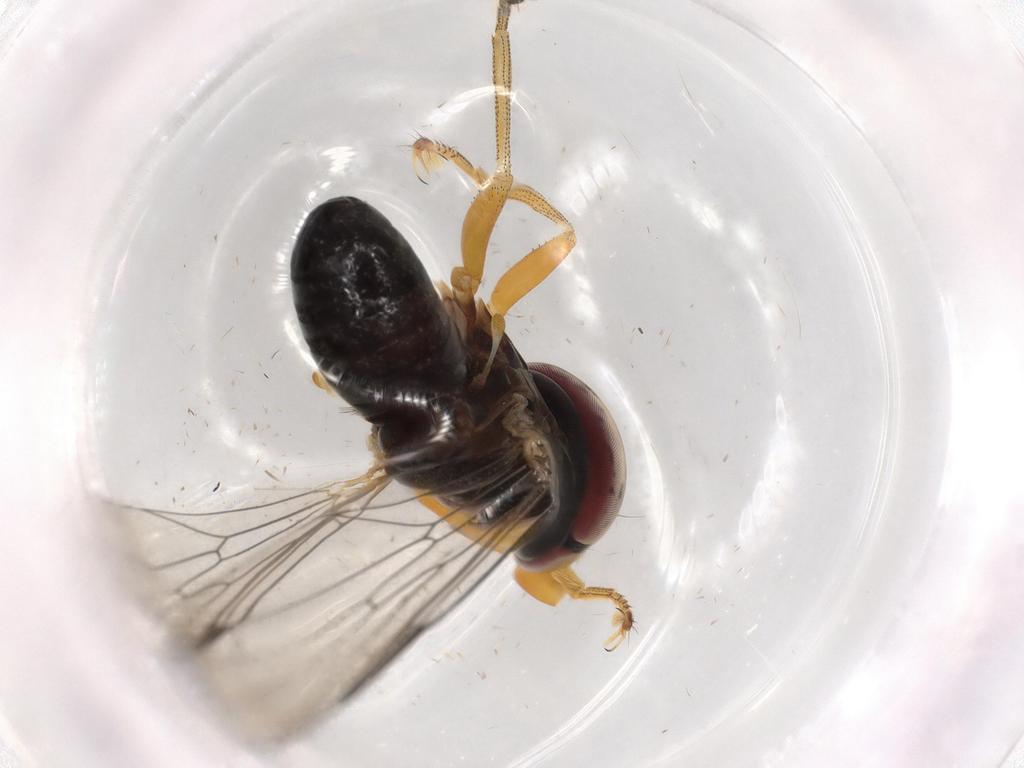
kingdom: Animalia
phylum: Arthropoda
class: Insecta
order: Diptera
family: Pipunculidae
